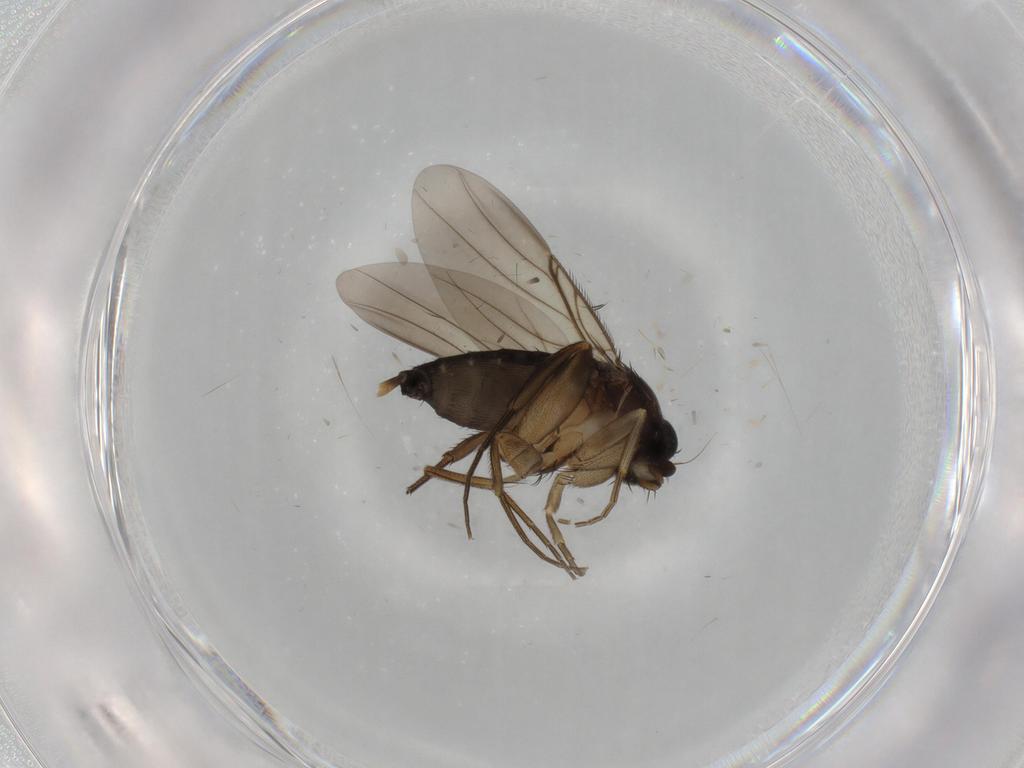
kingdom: Animalia
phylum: Arthropoda
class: Insecta
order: Diptera
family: Phoridae
